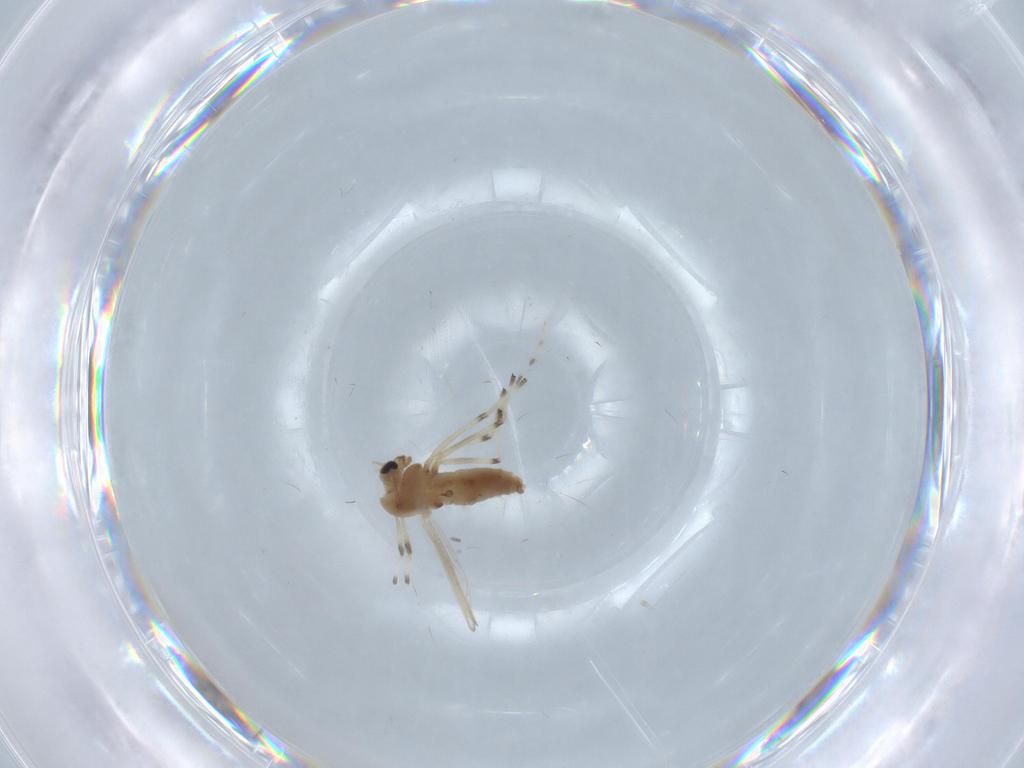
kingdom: Animalia
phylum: Arthropoda
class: Insecta
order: Diptera
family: Chironomidae
